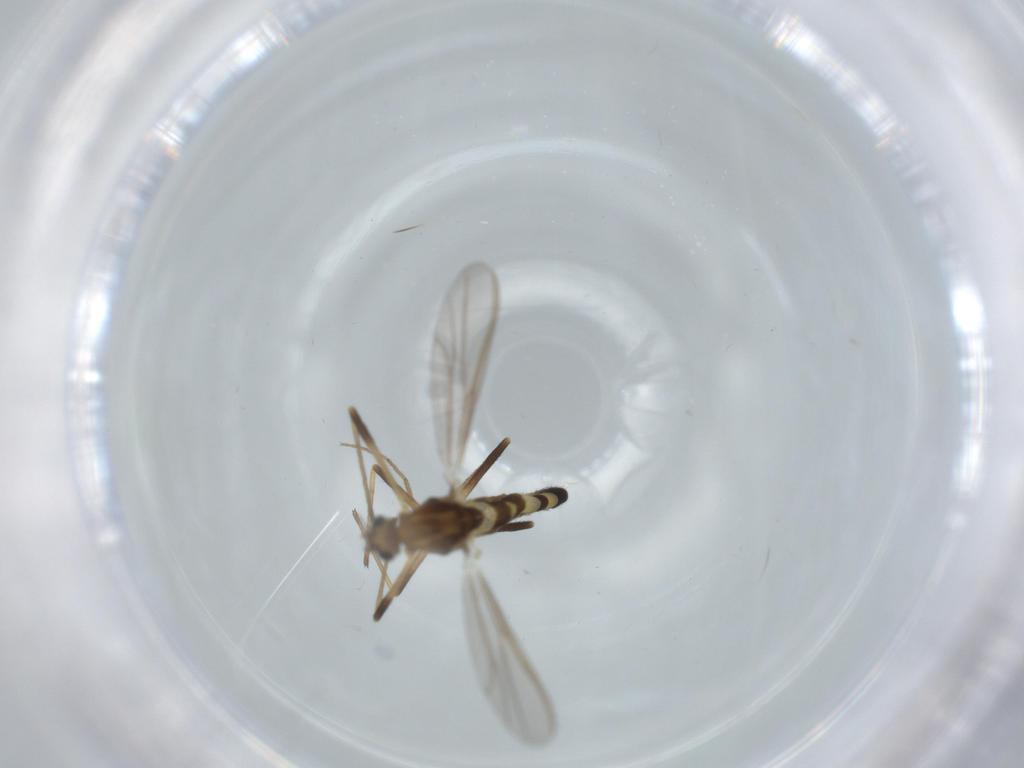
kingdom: Animalia
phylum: Arthropoda
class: Insecta
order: Diptera
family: Chironomidae
